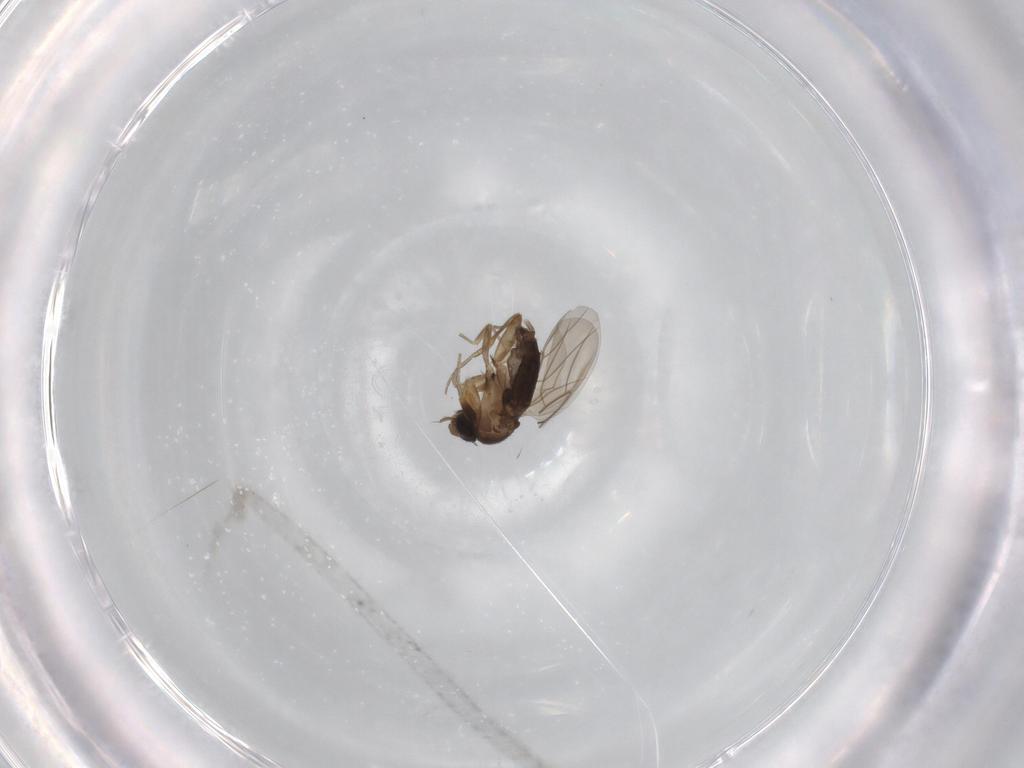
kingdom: Animalia
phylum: Arthropoda
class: Insecta
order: Diptera
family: Phoridae
